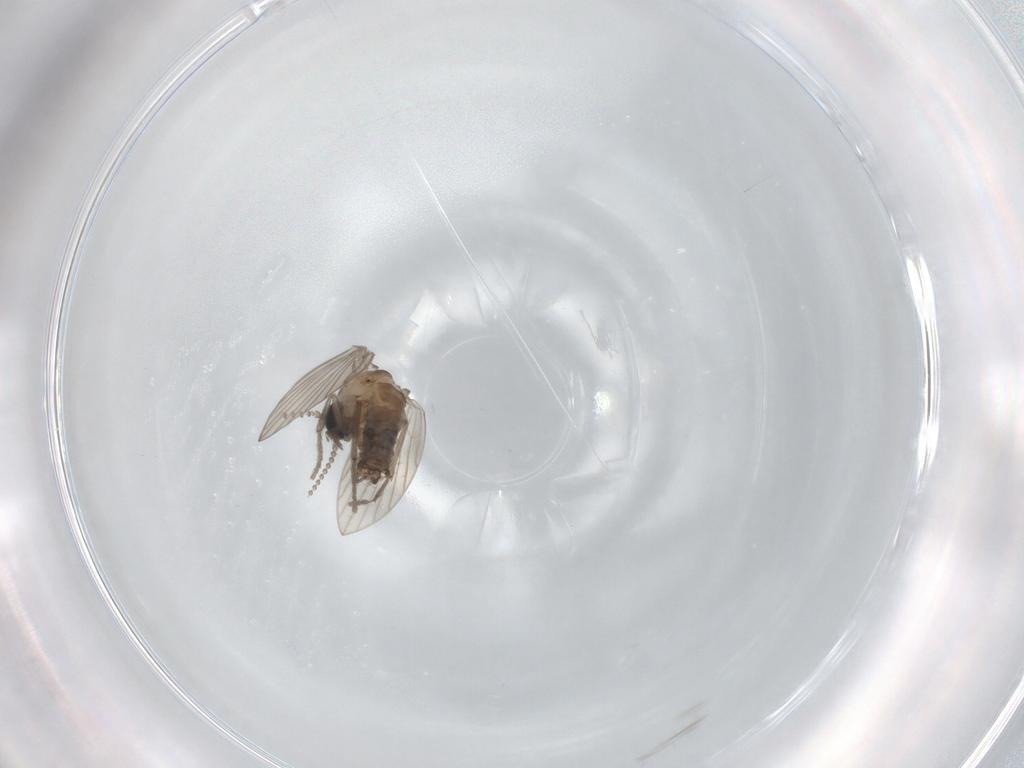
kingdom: Animalia
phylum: Arthropoda
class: Insecta
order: Diptera
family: Psychodidae
